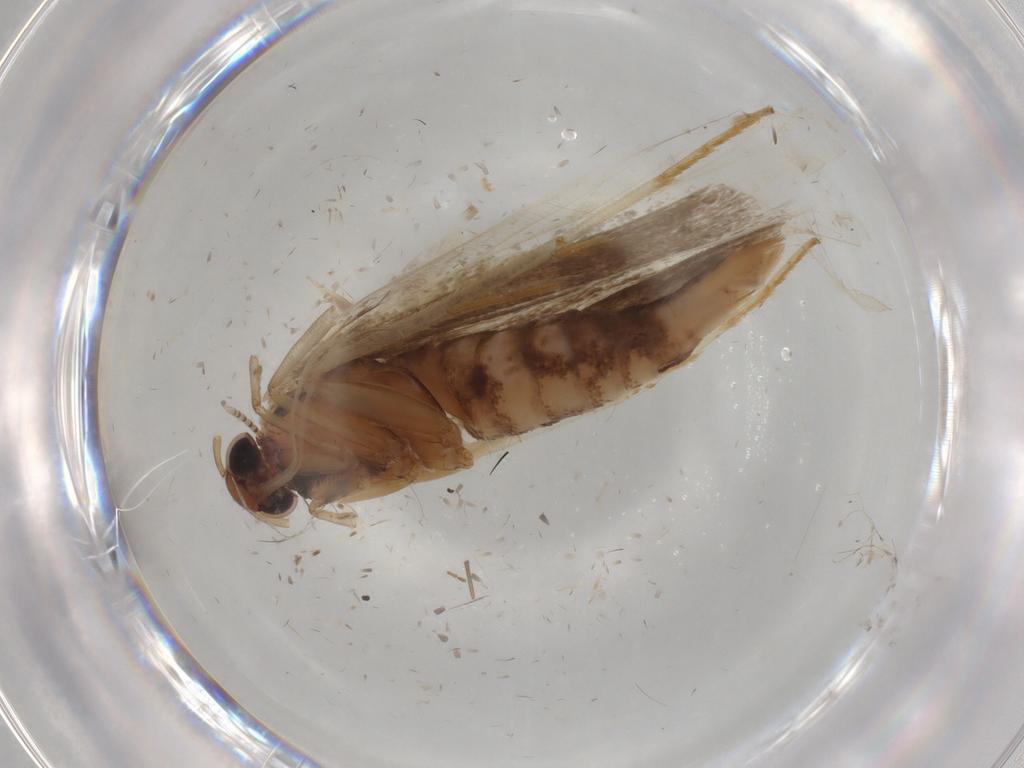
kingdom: Animalia
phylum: Arthropoda
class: Insecta
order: Lepidoptera
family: Gelechiidae
